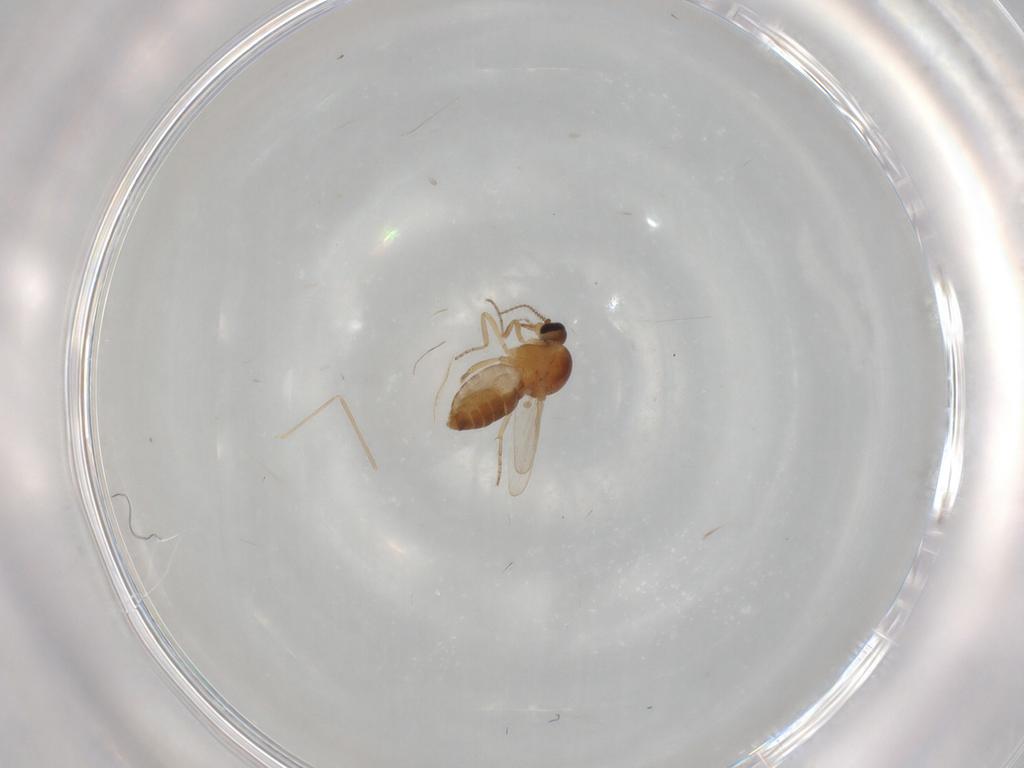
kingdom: Animalia
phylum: Arthropoda
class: Insecta
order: Diptera
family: Ceratopogonidae
